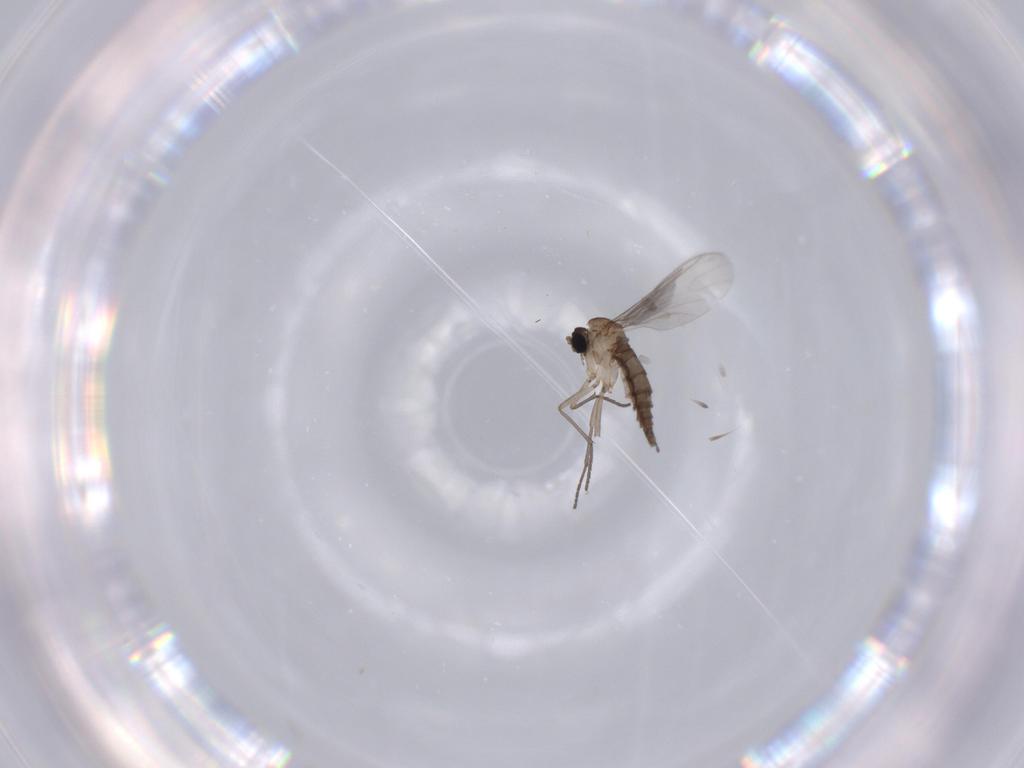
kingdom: Animalia
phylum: Arthropoda
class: Insecta
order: Diptera
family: Sciaridae
